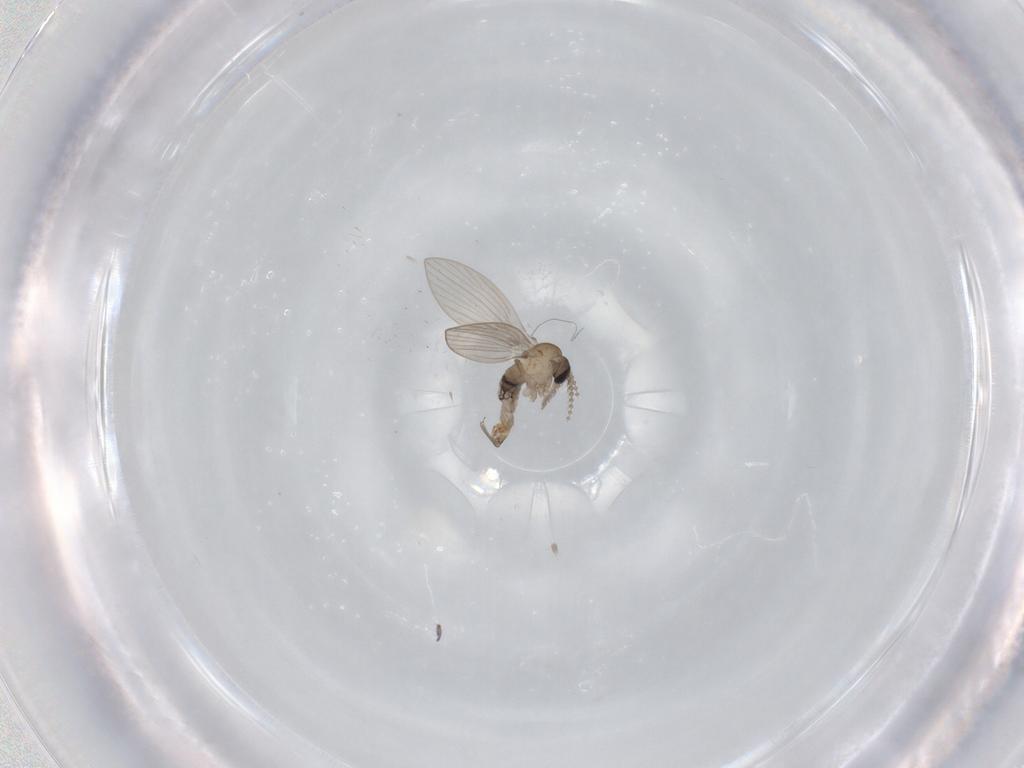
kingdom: Animalia
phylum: Arthropoda
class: Insecta
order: Diptera
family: Psychodidae
